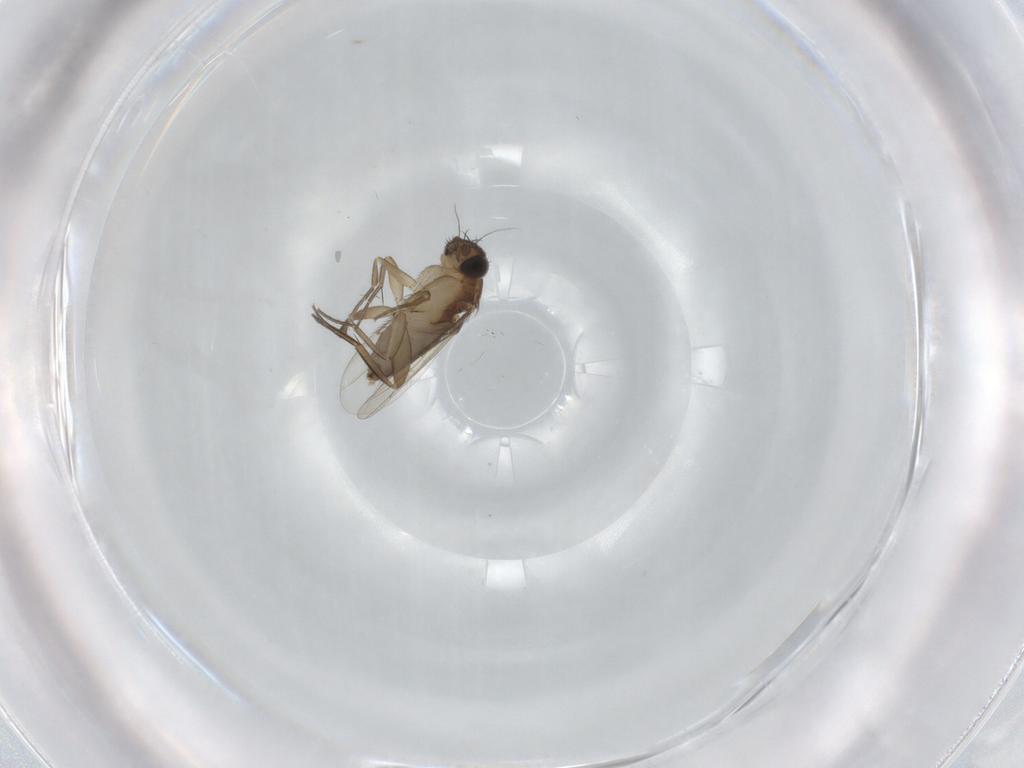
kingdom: Animalia
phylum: Arthropoda
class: Insecta
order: Diptera
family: Phoridae
